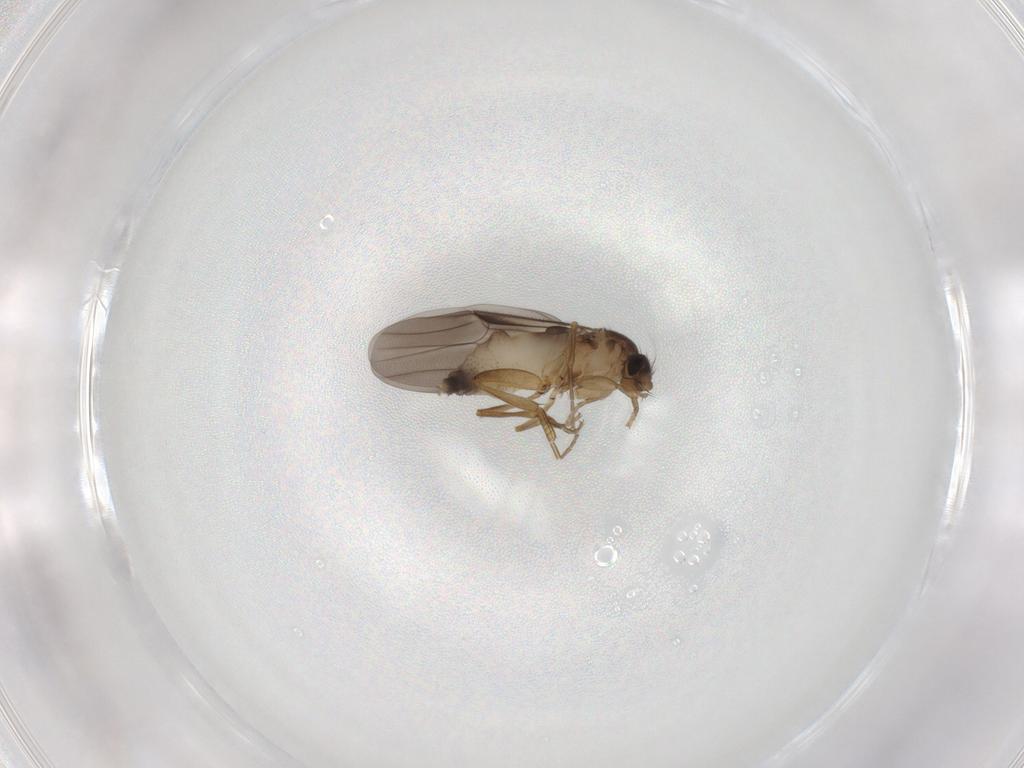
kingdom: Animalia
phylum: Arthropoda
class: Insecta
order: Diptera
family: Phoridae
